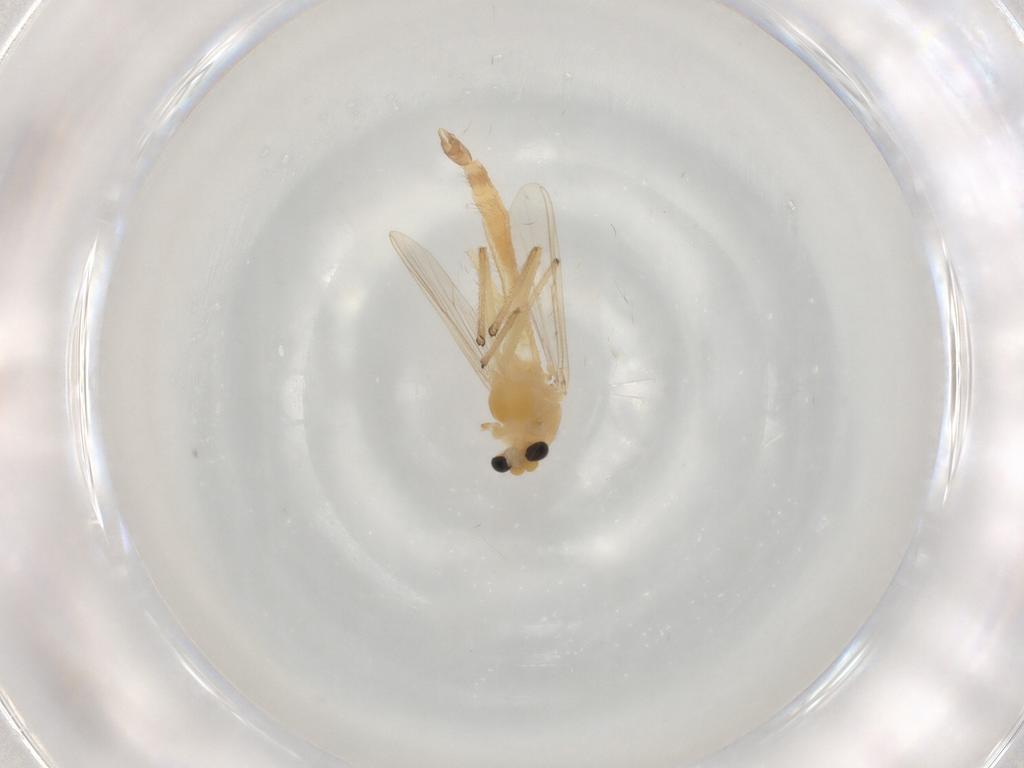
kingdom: Animalia
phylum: Arthropoda
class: Insecta
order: Diptera
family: Chironomidae
